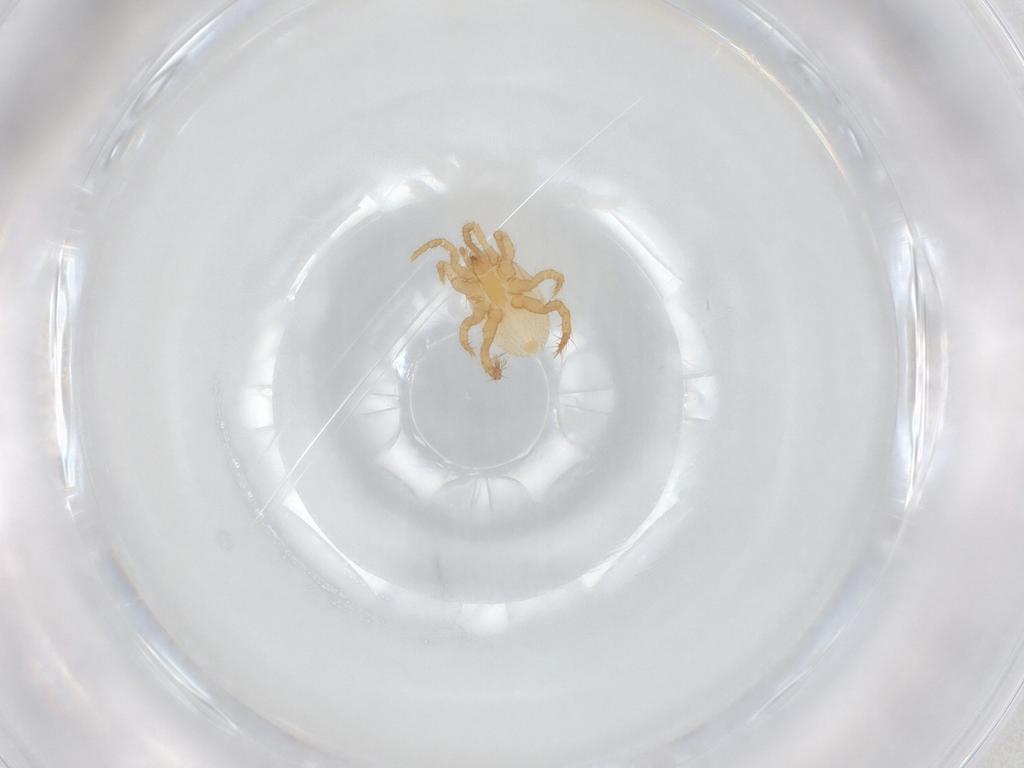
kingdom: Animalia
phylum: Arthropoda
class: Arachnida
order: Mesostigmata
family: Parasitidae
